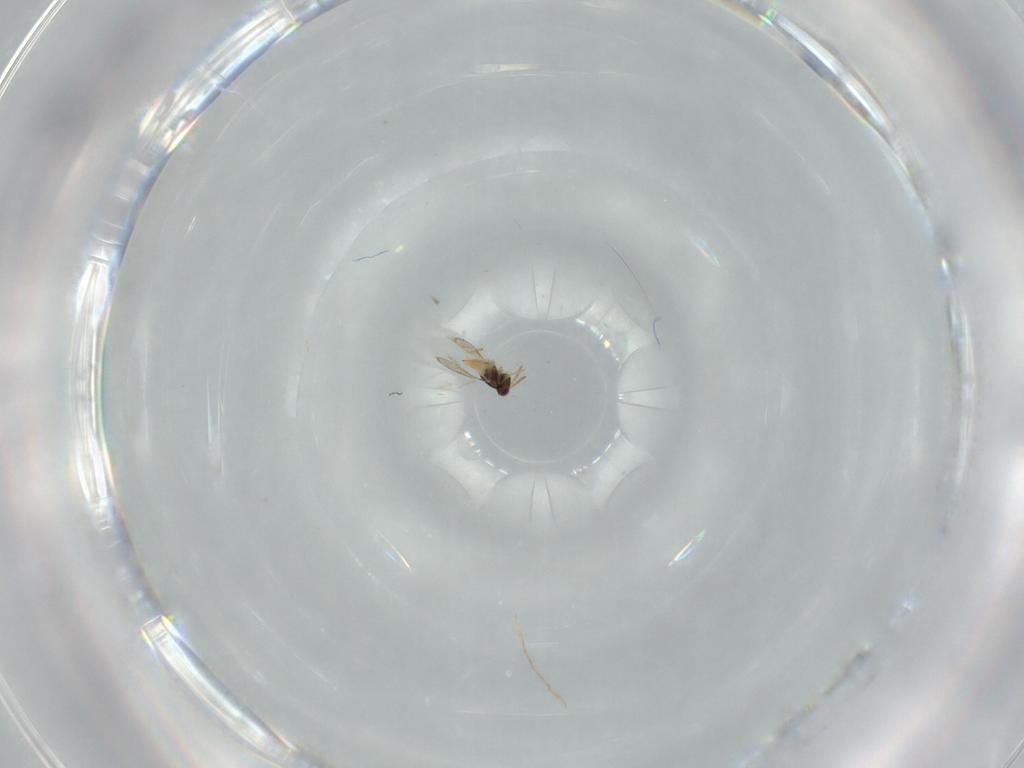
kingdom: Animalia
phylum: Arthropoda
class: Insecta
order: Hymenoptera
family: Aphelinidae
